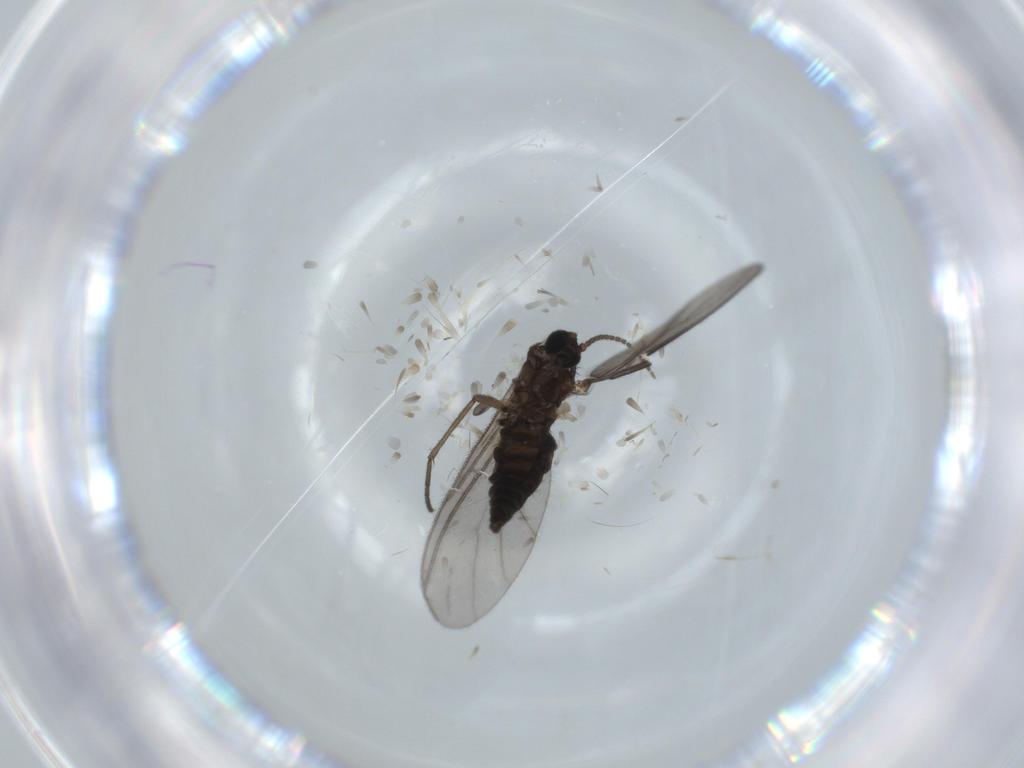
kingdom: Animalia
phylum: Arthropoda
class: Insecta
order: Diptera
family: Sciaridae
